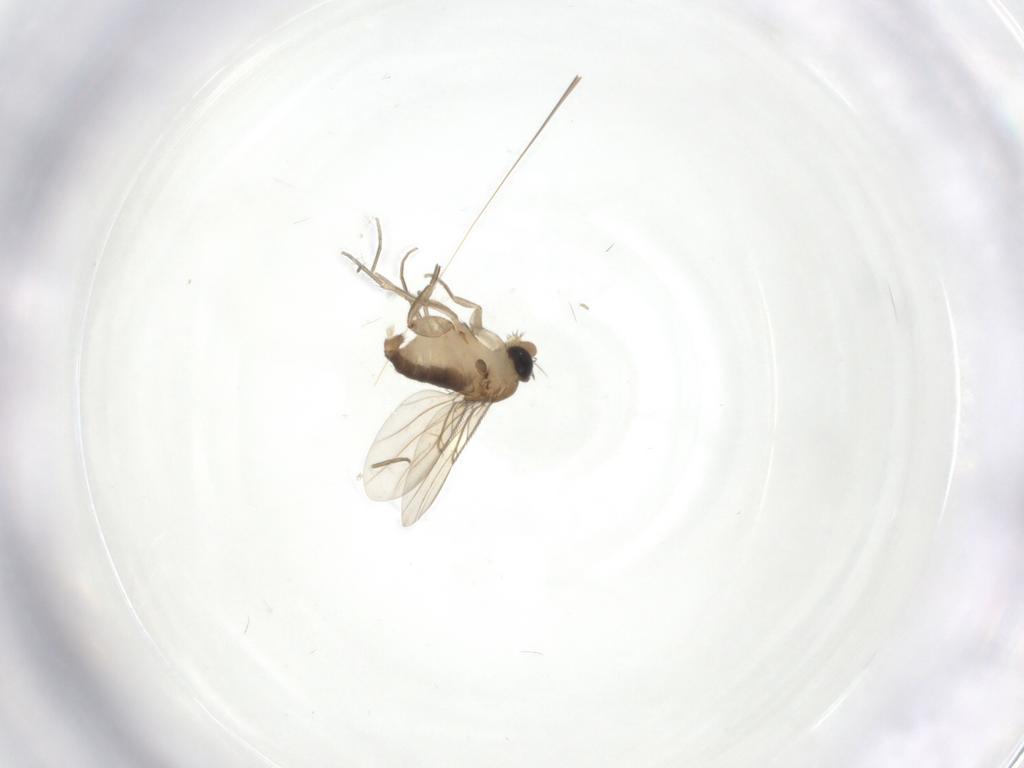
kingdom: Animalia
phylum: Arthropoda
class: Insecta
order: Diptera
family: Phoridae
